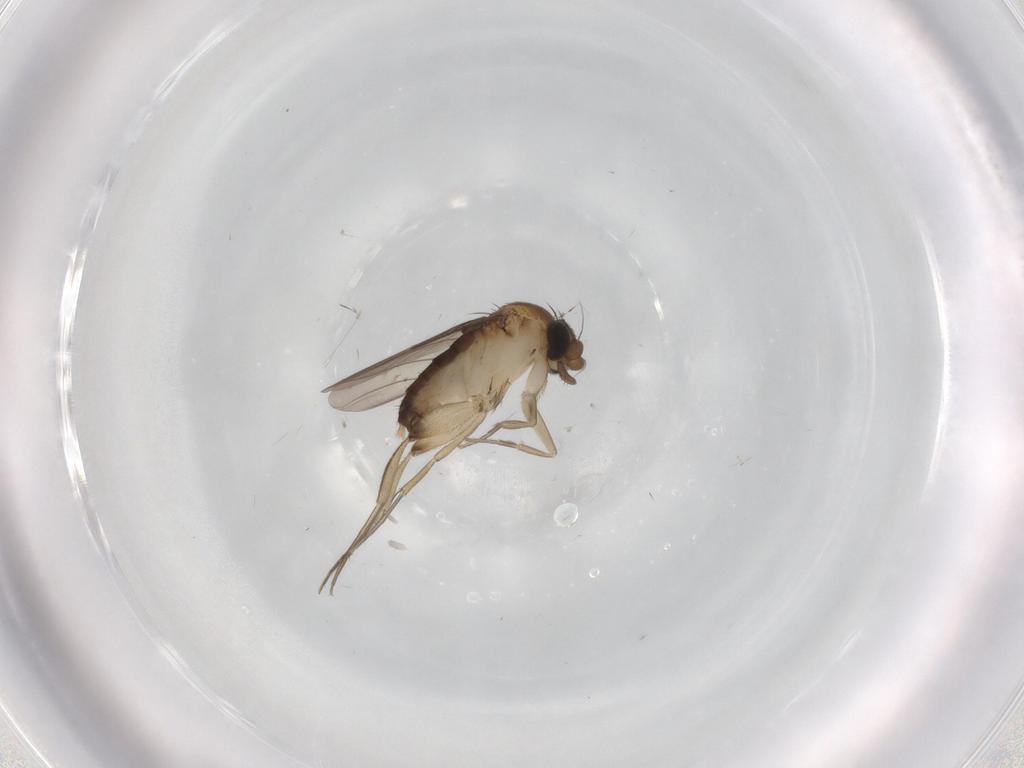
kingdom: Animalia
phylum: Arthropoda
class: Insecta
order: Diptera
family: Phoridae
